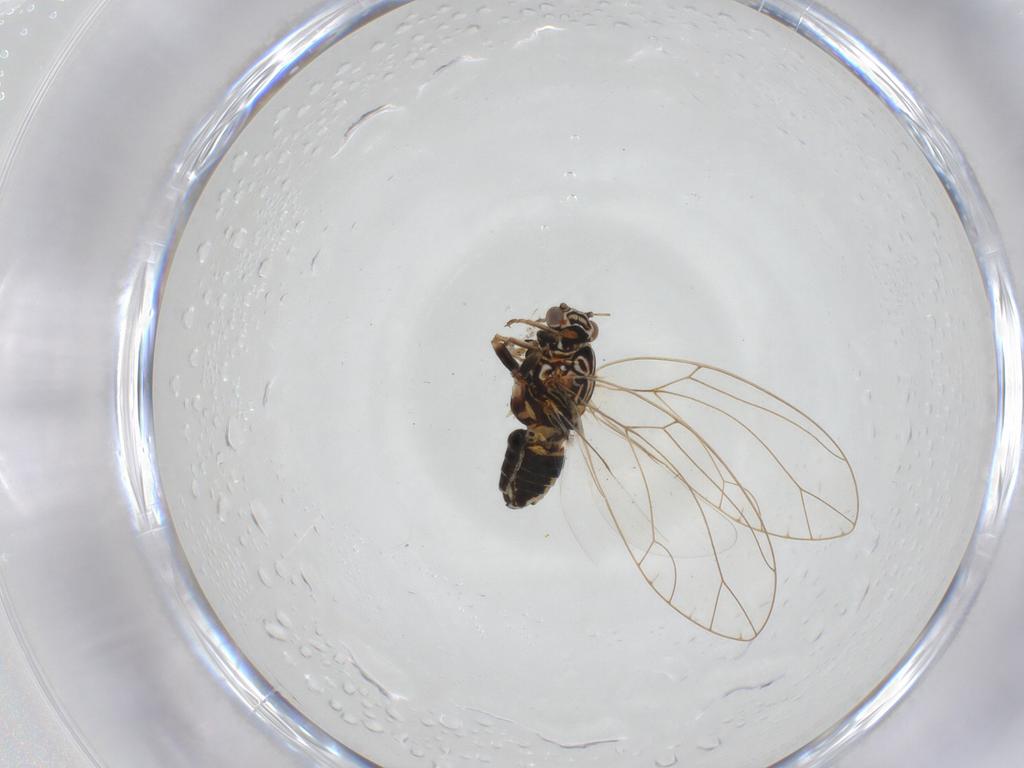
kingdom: Animalia
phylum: Arthropoda
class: Insecta
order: Hemiptera
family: Triozidae
